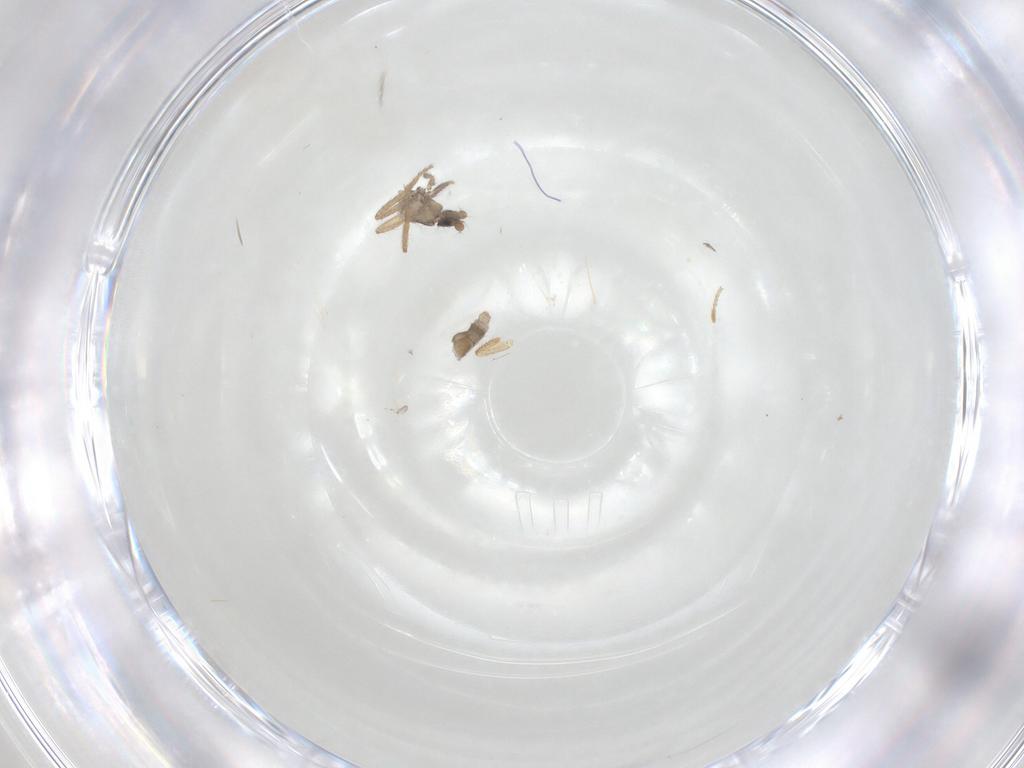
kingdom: Animalia
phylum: Arthropoda
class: Insecta
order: Diptera
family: Phoridae
